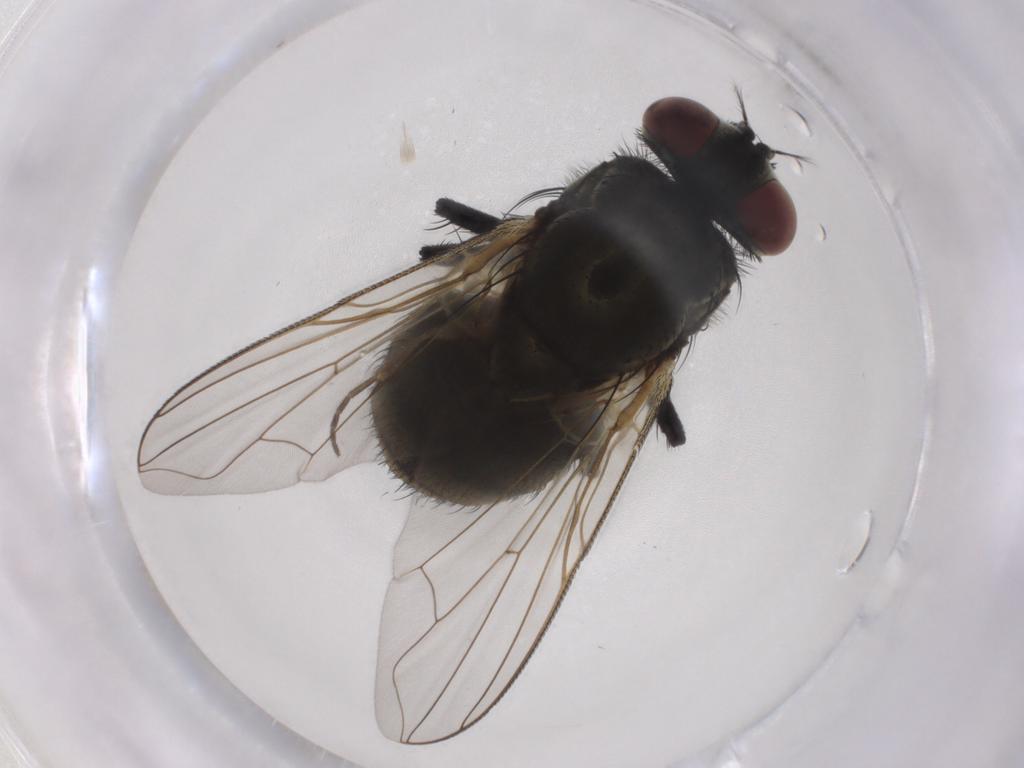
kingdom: Animalia
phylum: Arthropoda
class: Insecta
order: Diptera
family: Muscidae
